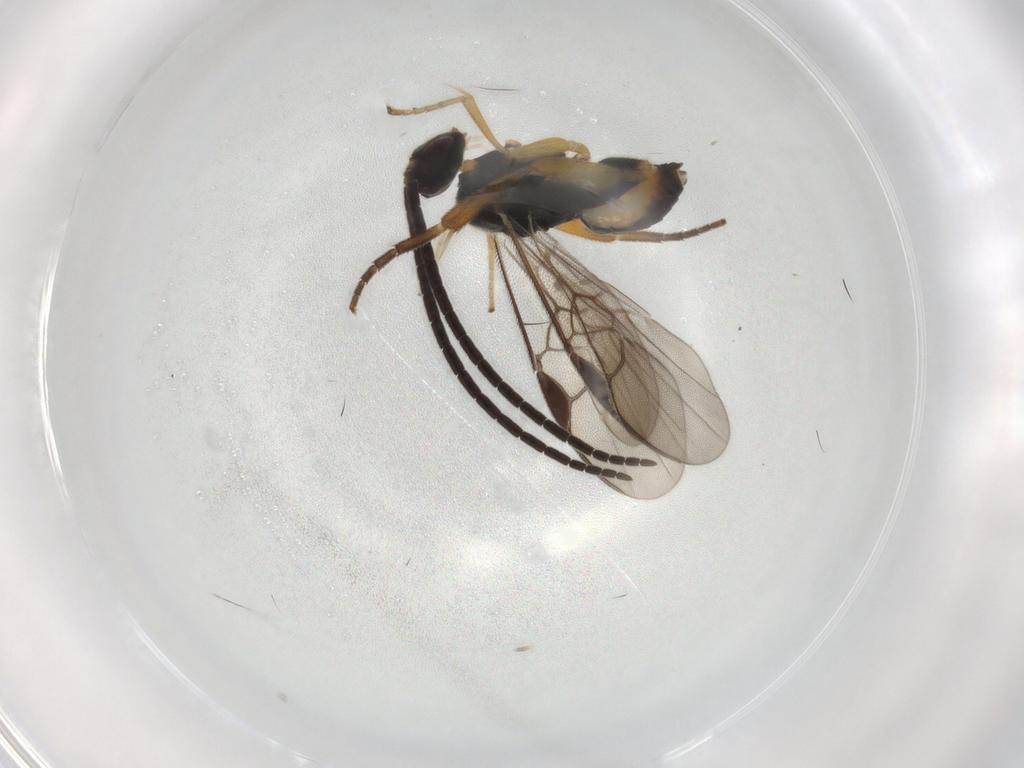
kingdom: Animalia
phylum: Arthropoda
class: Insecta
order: Hymenoptera
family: Braconidae
